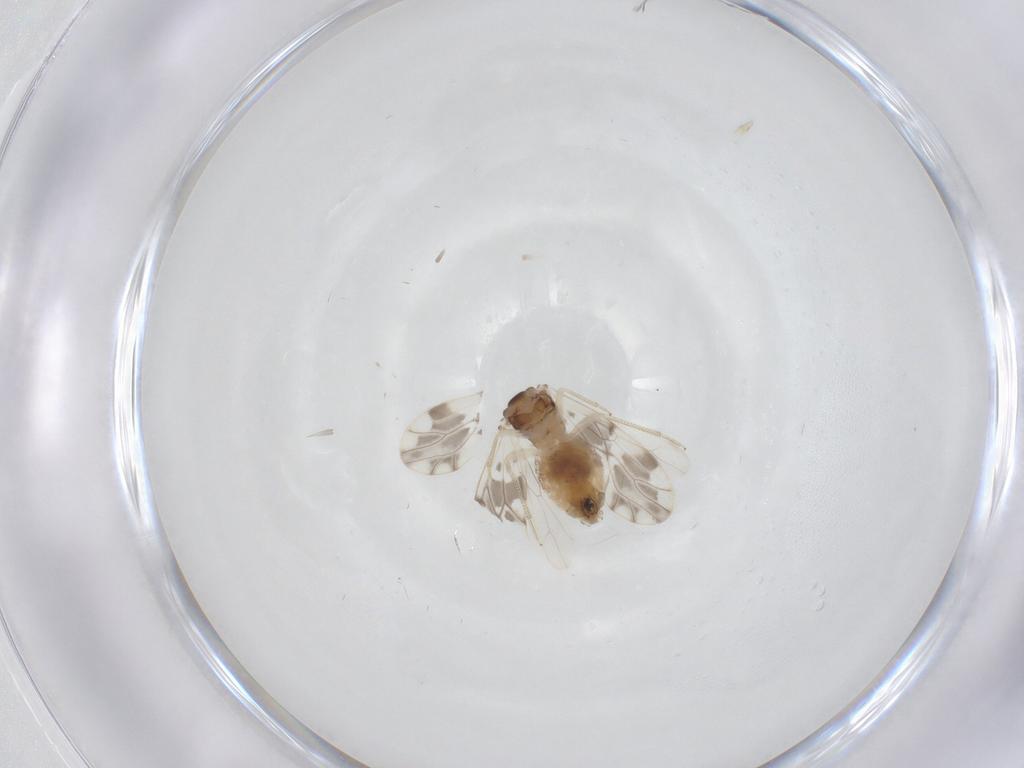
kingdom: Animalia
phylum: Arthropoda
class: Insecta
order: Psocodea
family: Ectopsocidae
